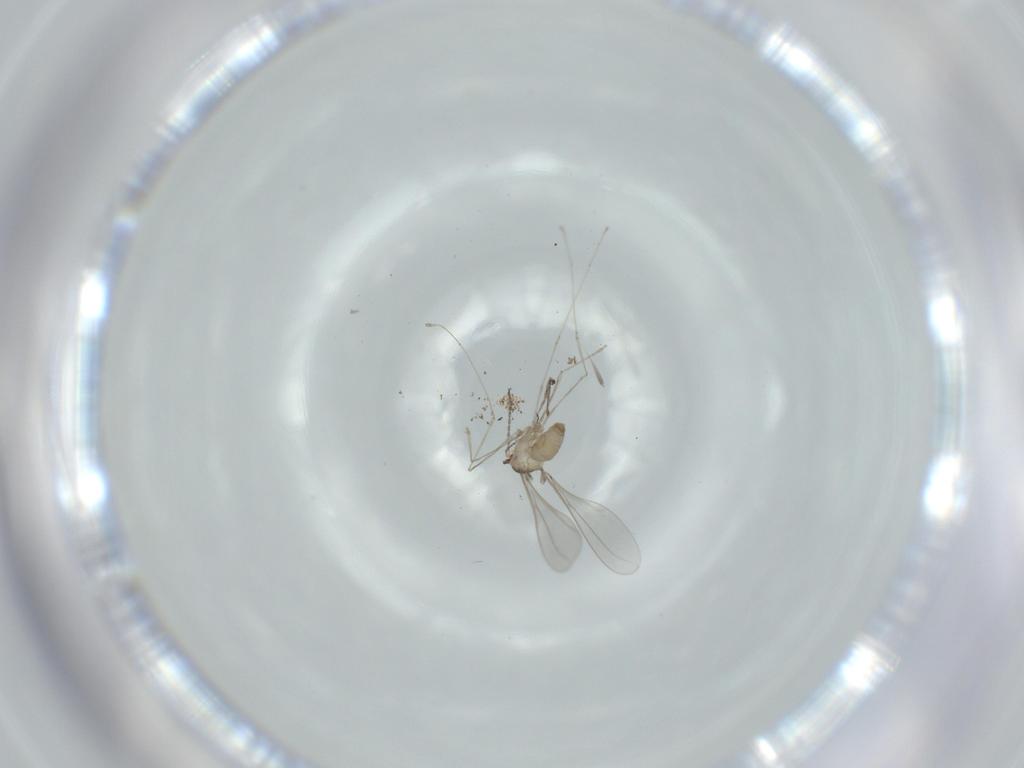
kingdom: Animalia
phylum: Arthropoda
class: Insecta
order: Diptera
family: Cecidomyiidae
